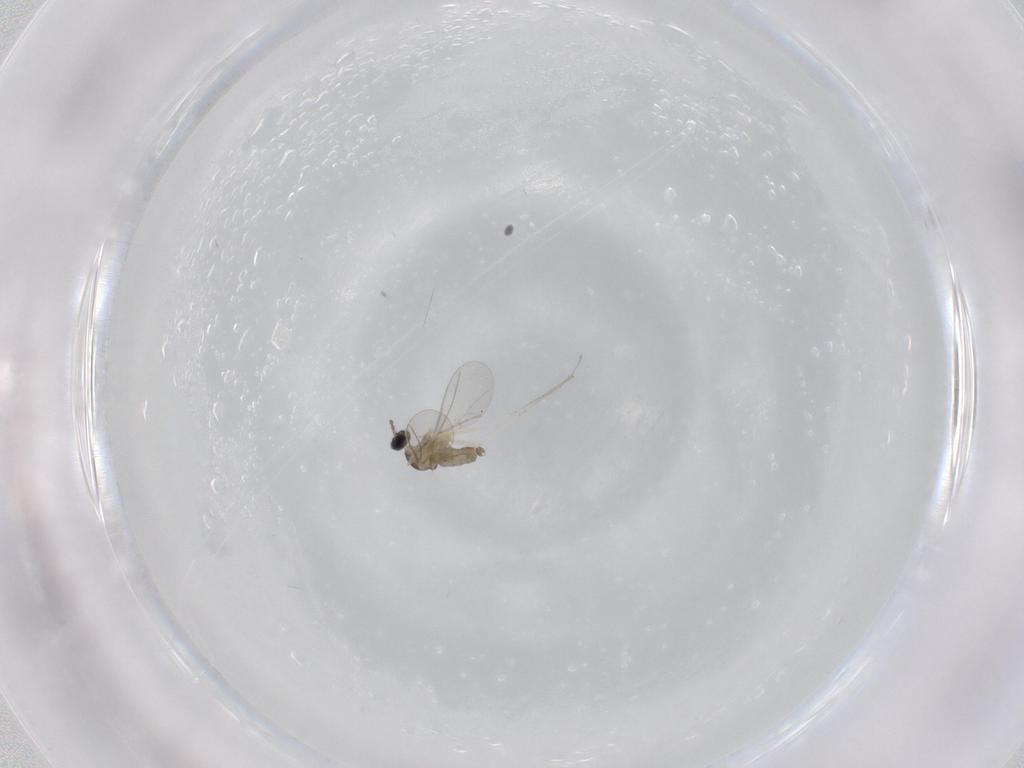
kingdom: Animalia
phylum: Arthropoda
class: Insecta
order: Diptera
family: Cecidomyiidae
